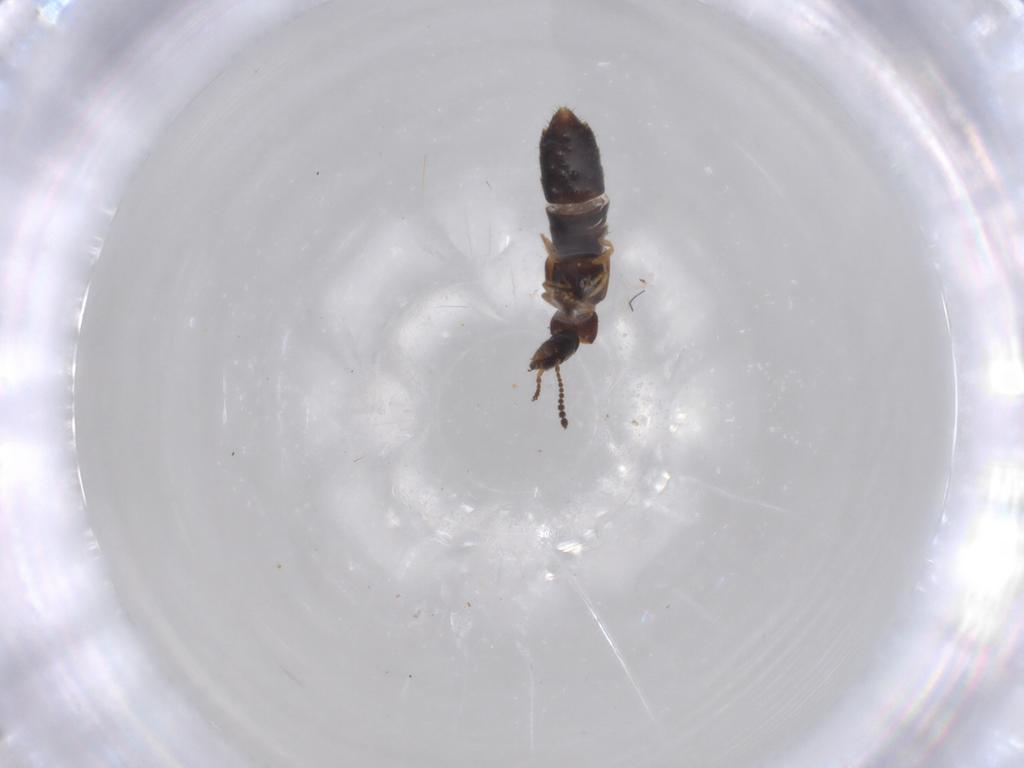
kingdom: Animalia
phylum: Arthropoda
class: Insecta
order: Coleoptera
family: Staphylinidae
